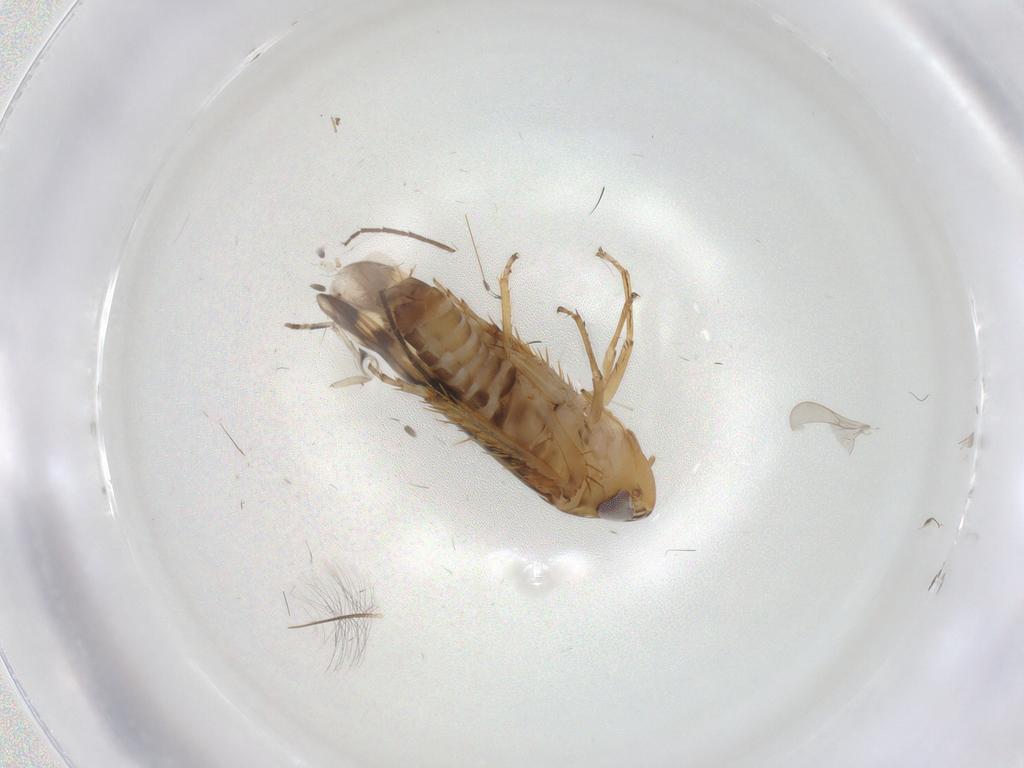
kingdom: Animalia
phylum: Arthropoda
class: Insecta
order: Hemiptera
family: Cicadellidae
